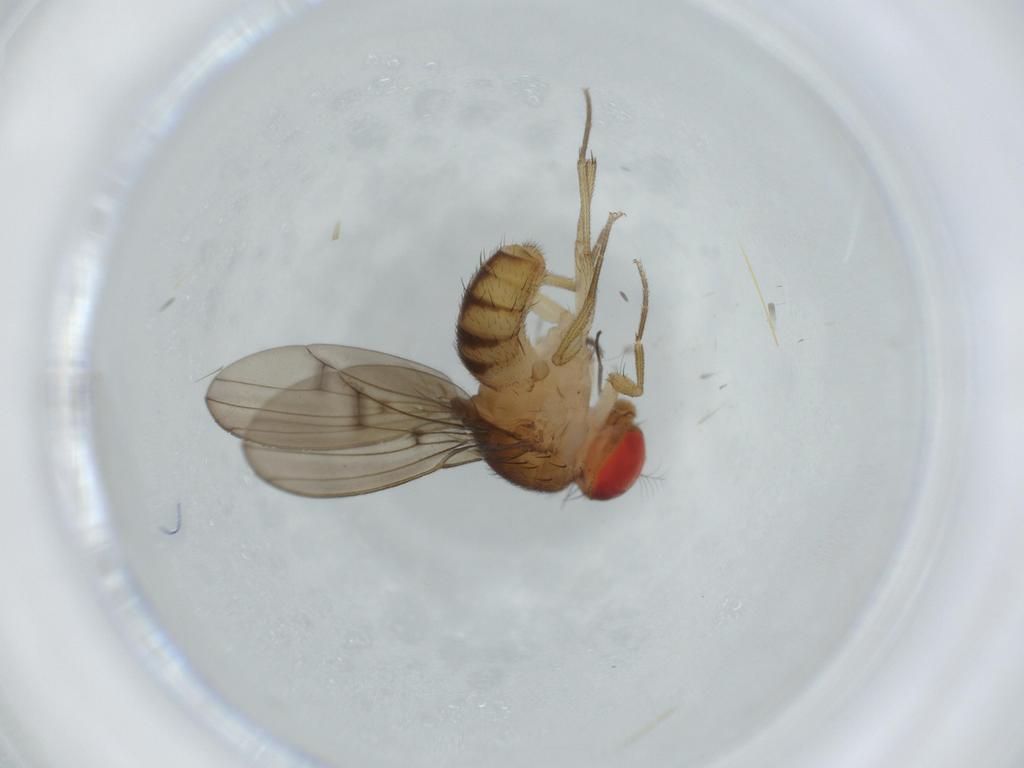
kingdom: Animalia
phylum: Arthropoda
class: Insecta
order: Diptera
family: Drosophilidae
